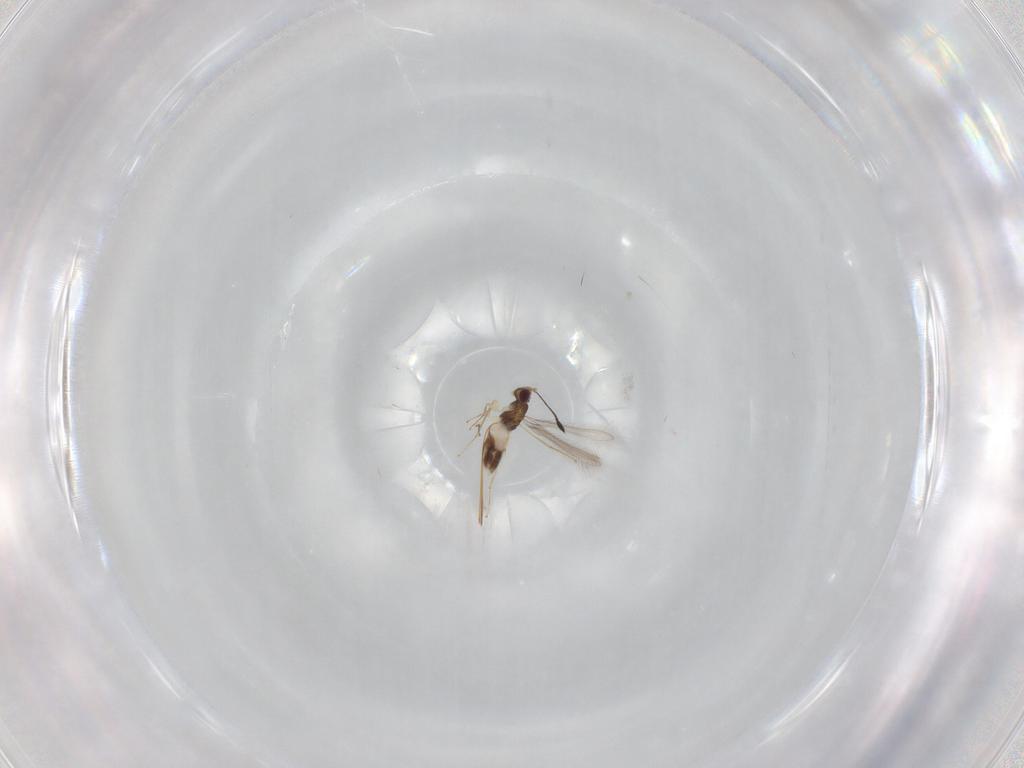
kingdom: Animalia
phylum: Arthropoda
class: Insecta
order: Hymenoptera
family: Mymaridae
